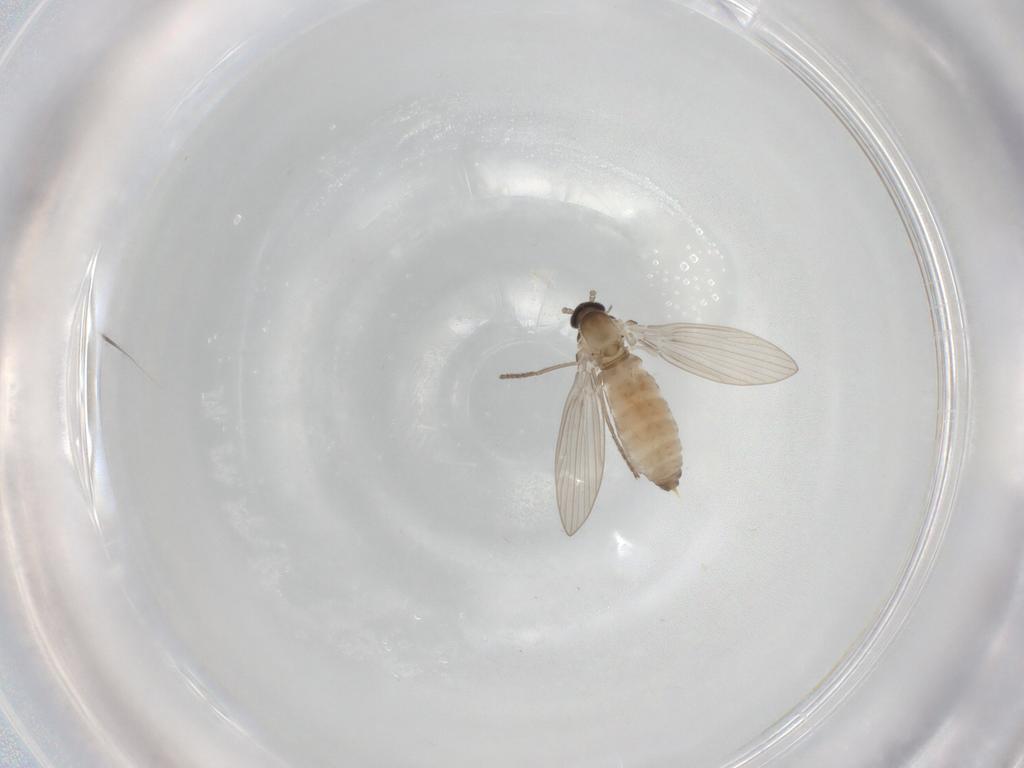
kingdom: Animalia
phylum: Arthropoda
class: Insecta
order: Diptera
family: Psychodidae
